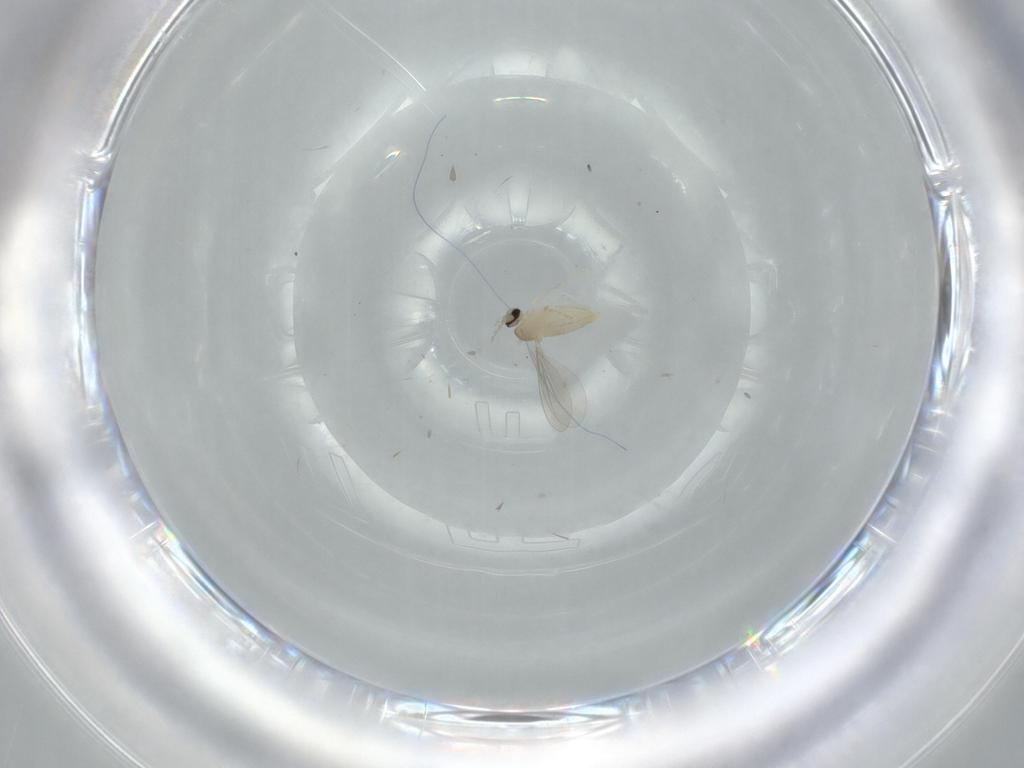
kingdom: Animalia
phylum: Arthropoda
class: Insecta
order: Diptera
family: Cecidomyiidae
